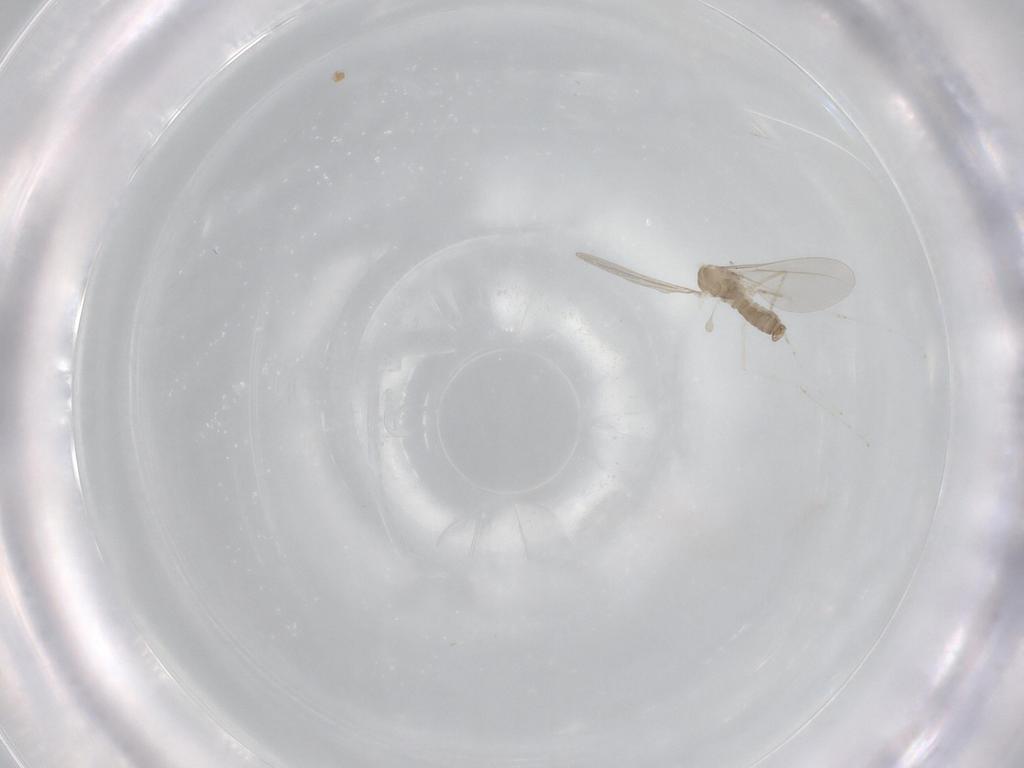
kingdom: Animalia
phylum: Arthropoda
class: Insecta
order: Diptera
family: Cecidomyiidae
